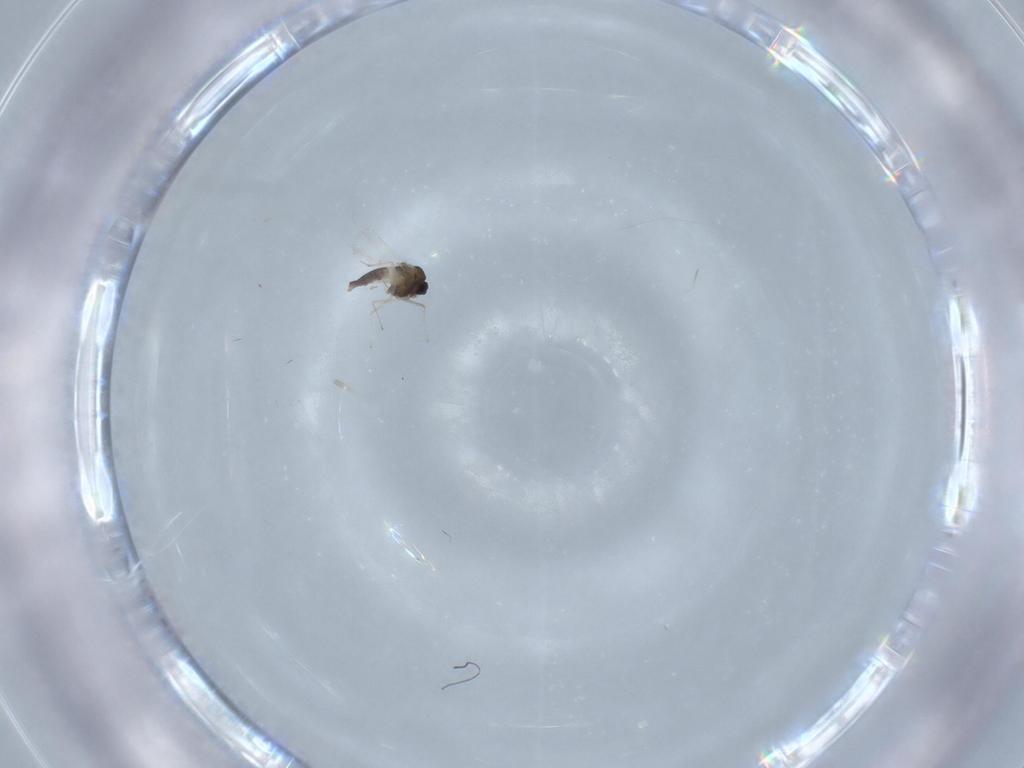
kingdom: Animalia
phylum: Arthropoda
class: Insecta
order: Diptera
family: Chironomidae
